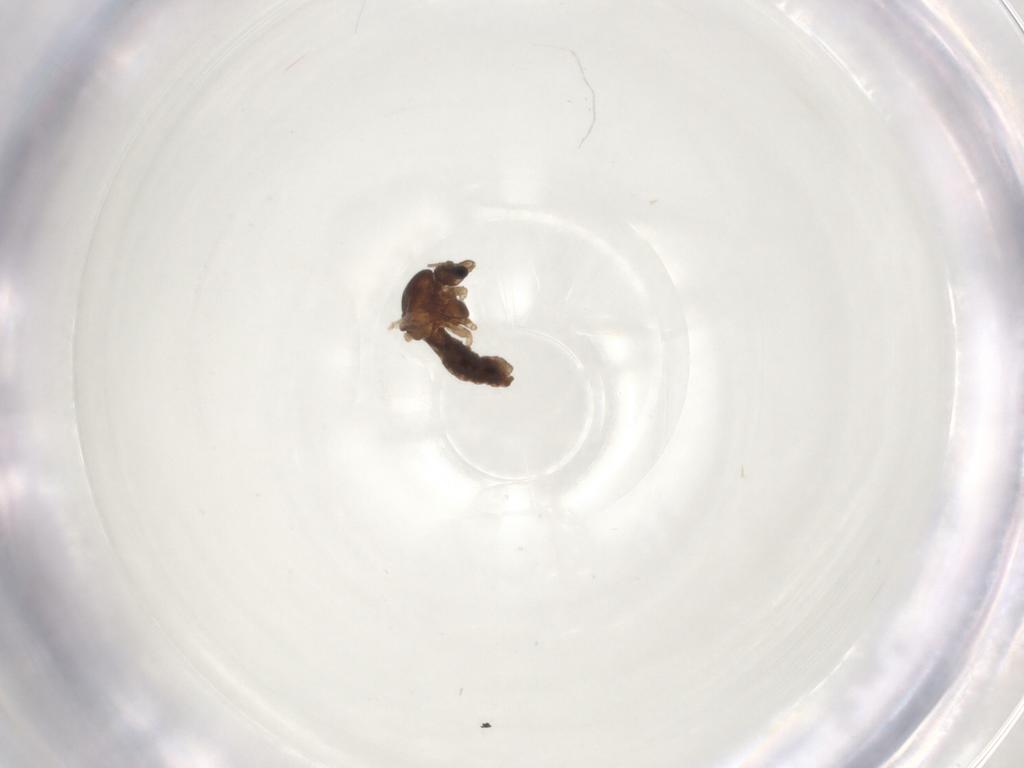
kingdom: Animalia
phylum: Arthropoda
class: Insecta
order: Diptera
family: Chironomidae
